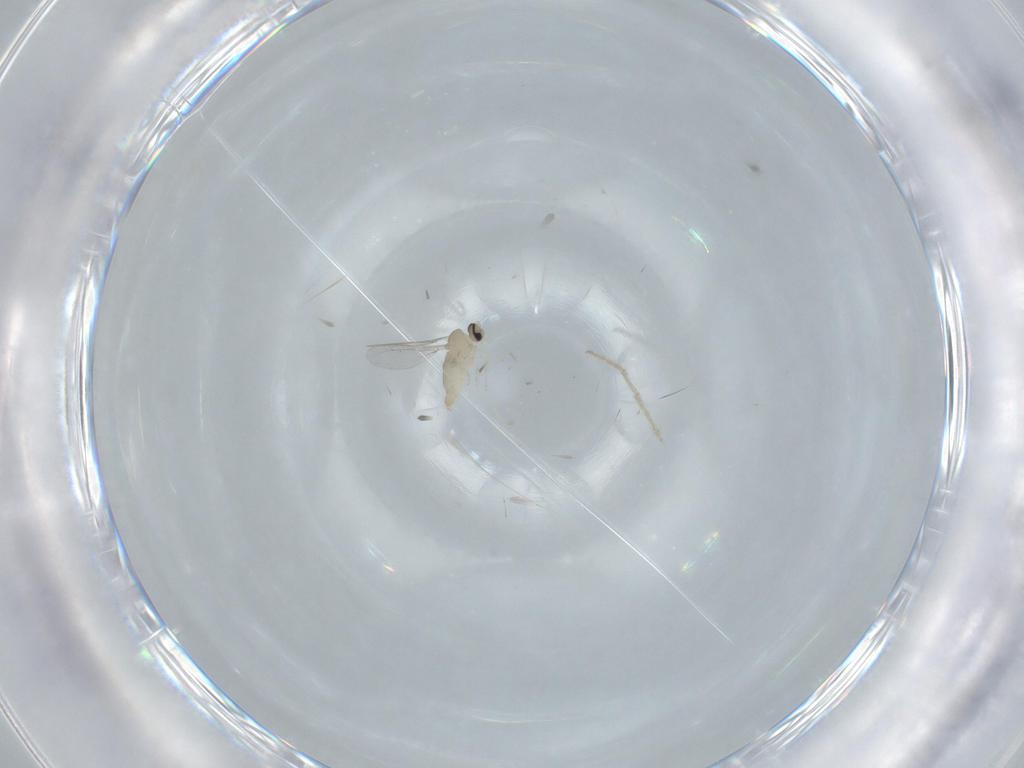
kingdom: Animalia
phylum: Arthropoda
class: Insecta
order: Diptera
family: Cecidomyiidae
